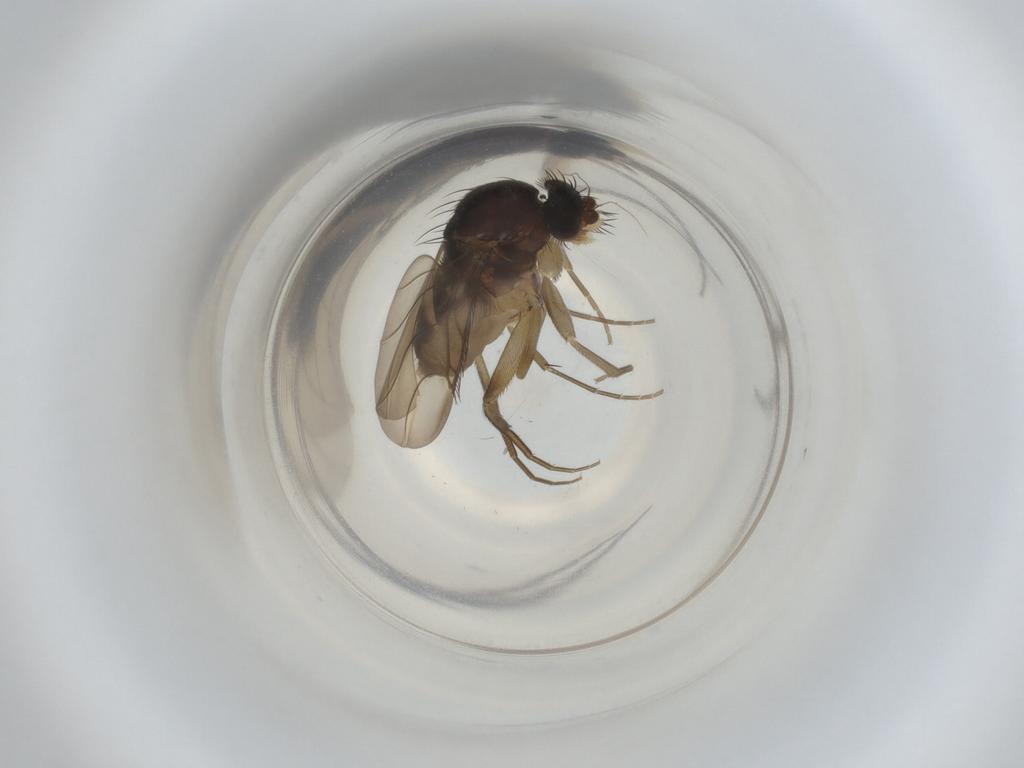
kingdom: Animalia
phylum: Arthropoda
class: Insecta
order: Diptera
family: Phoridae
